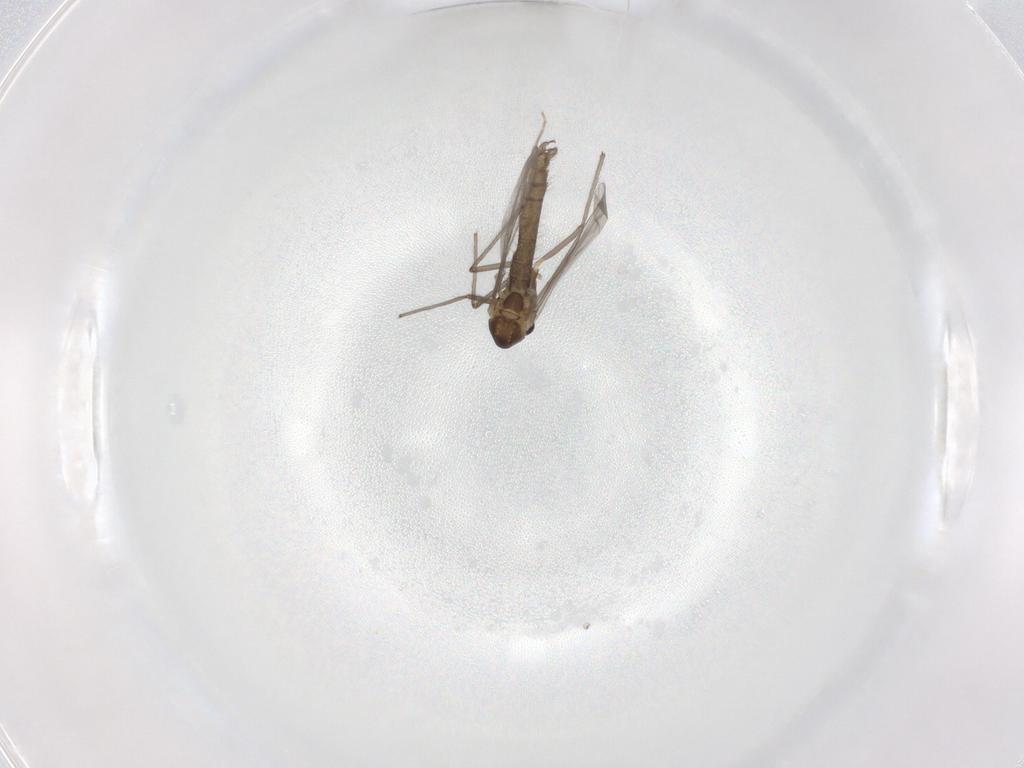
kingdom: Animalia
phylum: Arthropoda
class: Insecta
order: Diptera
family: Chironomidae
